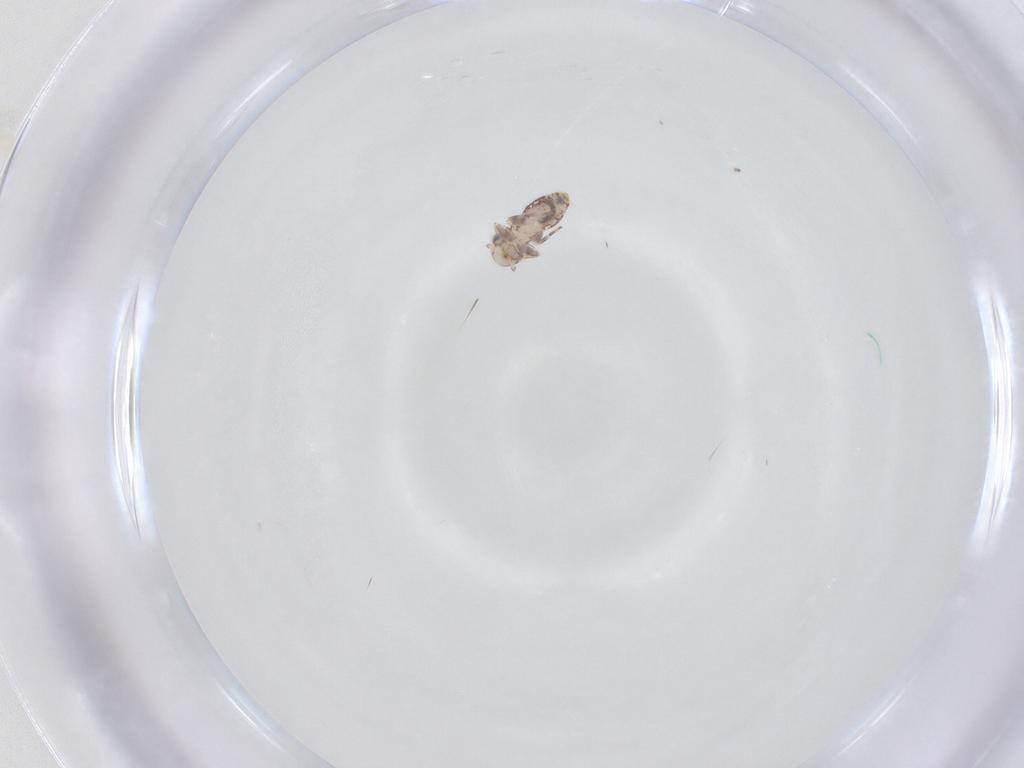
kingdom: Animalia
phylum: Arthropoda
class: Insecta
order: Psocodea
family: Amphientomidae
